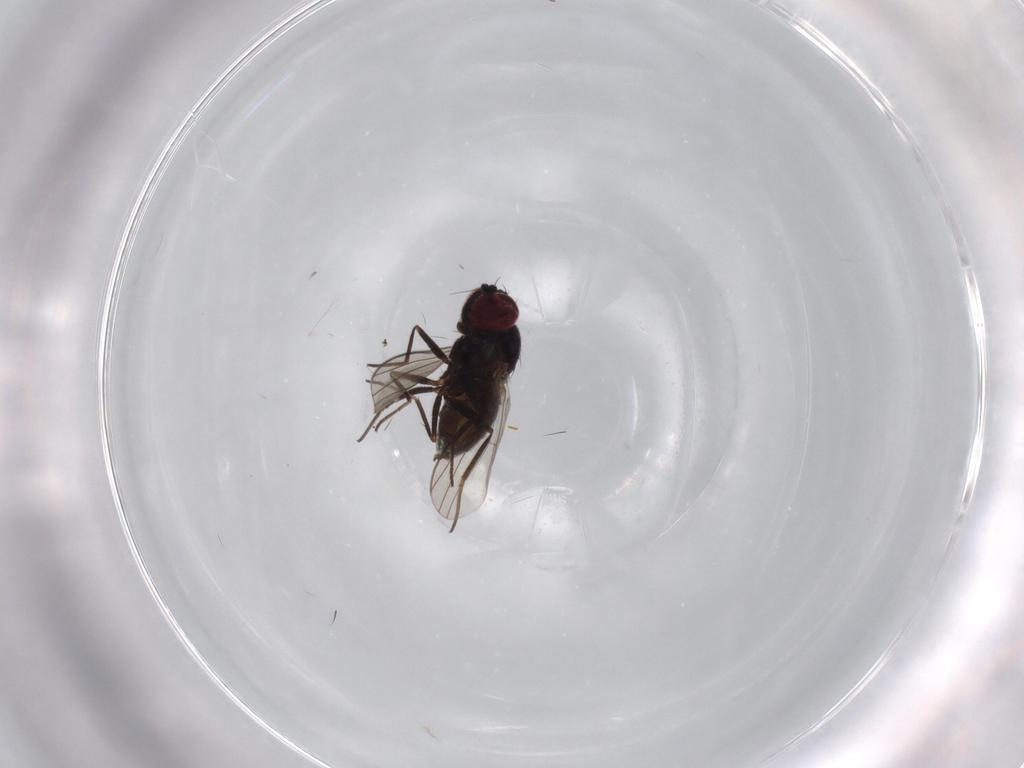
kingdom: Animalia
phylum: Arthropoda
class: Insecta
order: Diptera
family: Dolichopodidae
